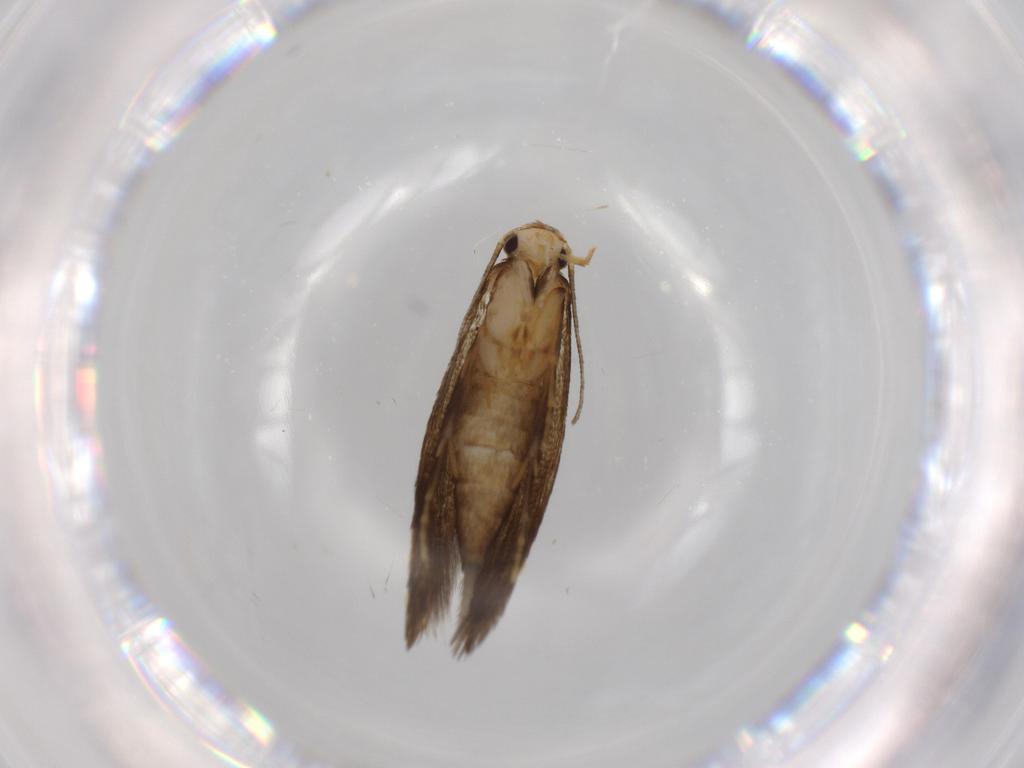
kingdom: Animalia
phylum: Arthropoda
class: Insecta
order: Lepidoptera
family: Tineidae
